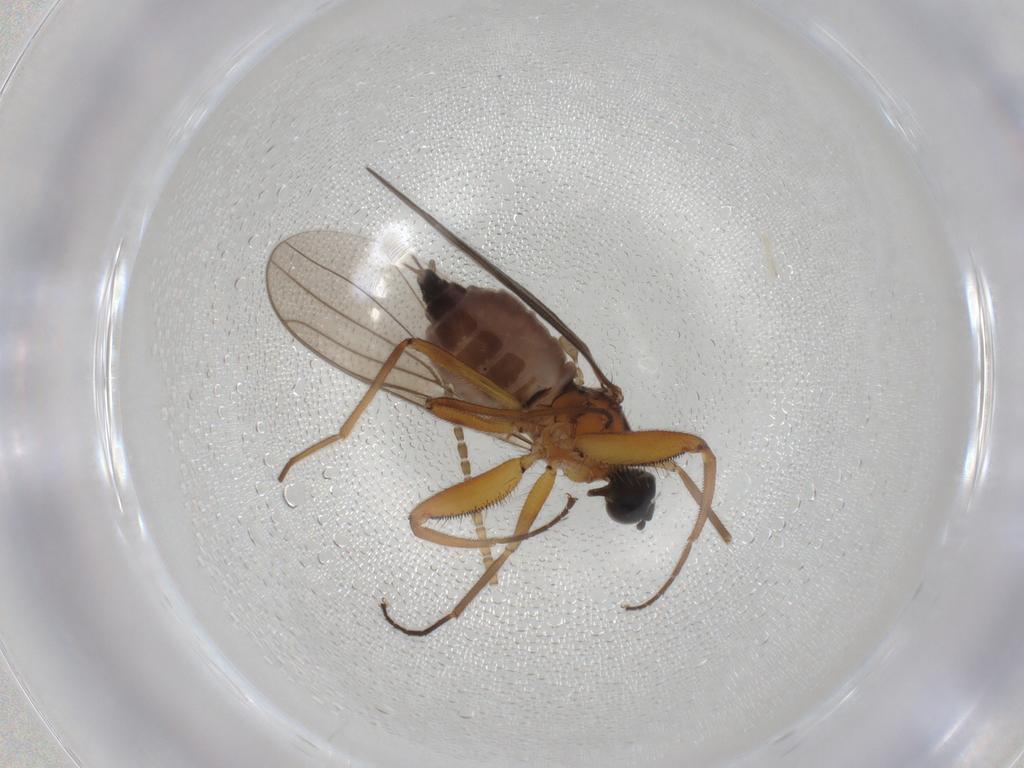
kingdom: Animalia
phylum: Arthropoda
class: Insecta
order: Diptera
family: Hybotidae
